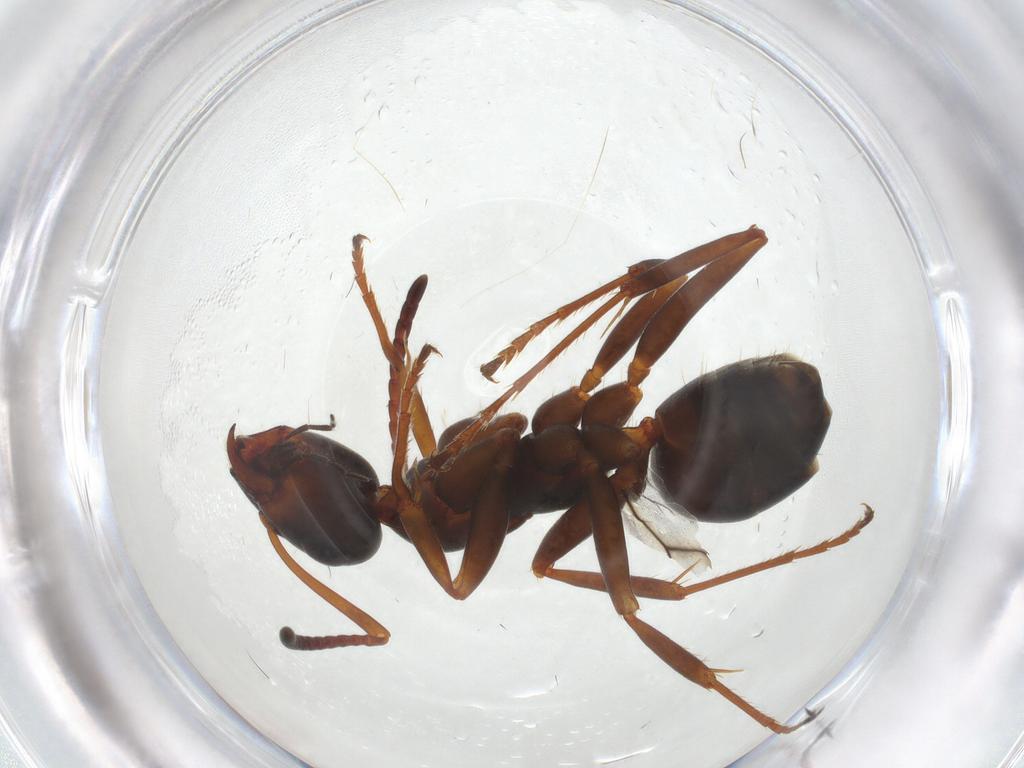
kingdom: Animalia
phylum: Arthropoda
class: Insecta
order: Hymenoptera
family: Formicidae
